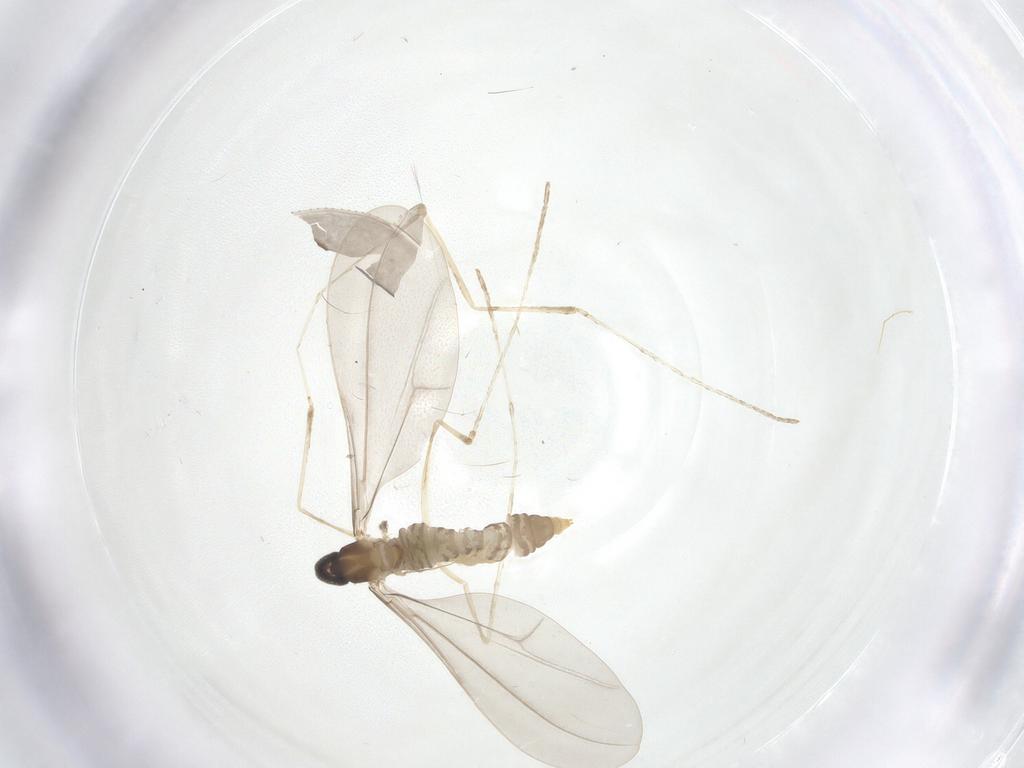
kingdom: Animalia
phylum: Arthropoda
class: Insecta
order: Diptera
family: Cecidomyiidae
